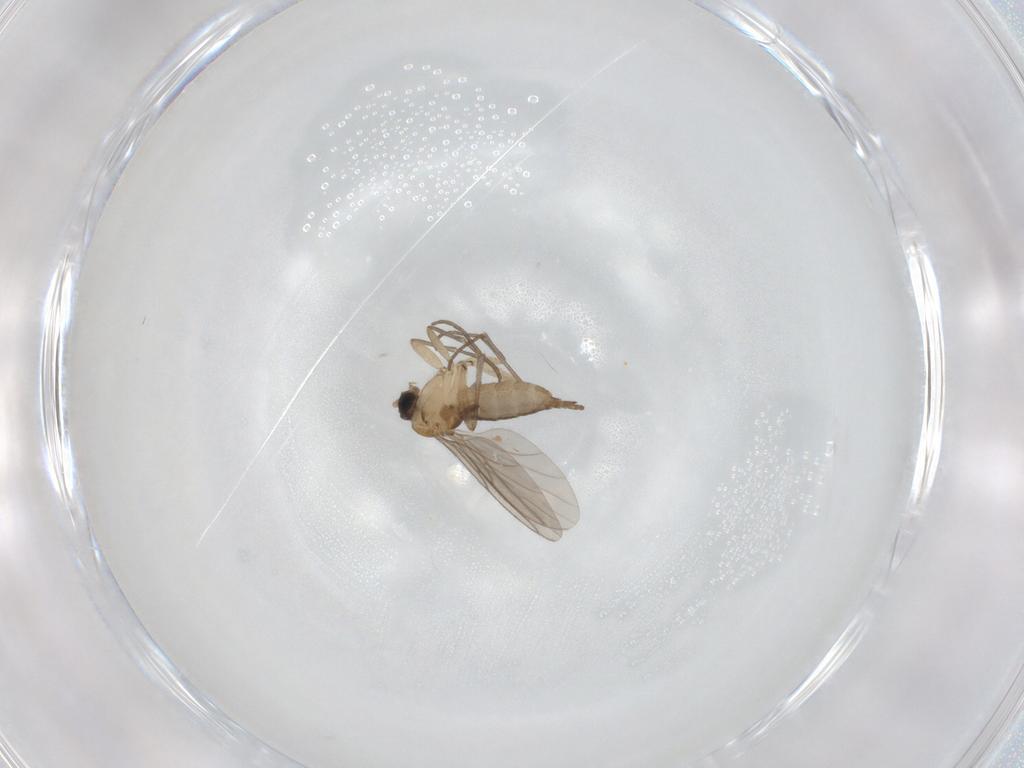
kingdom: Animalia
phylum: Arthropoda
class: Insecta
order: Diptera
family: Sciaridae
